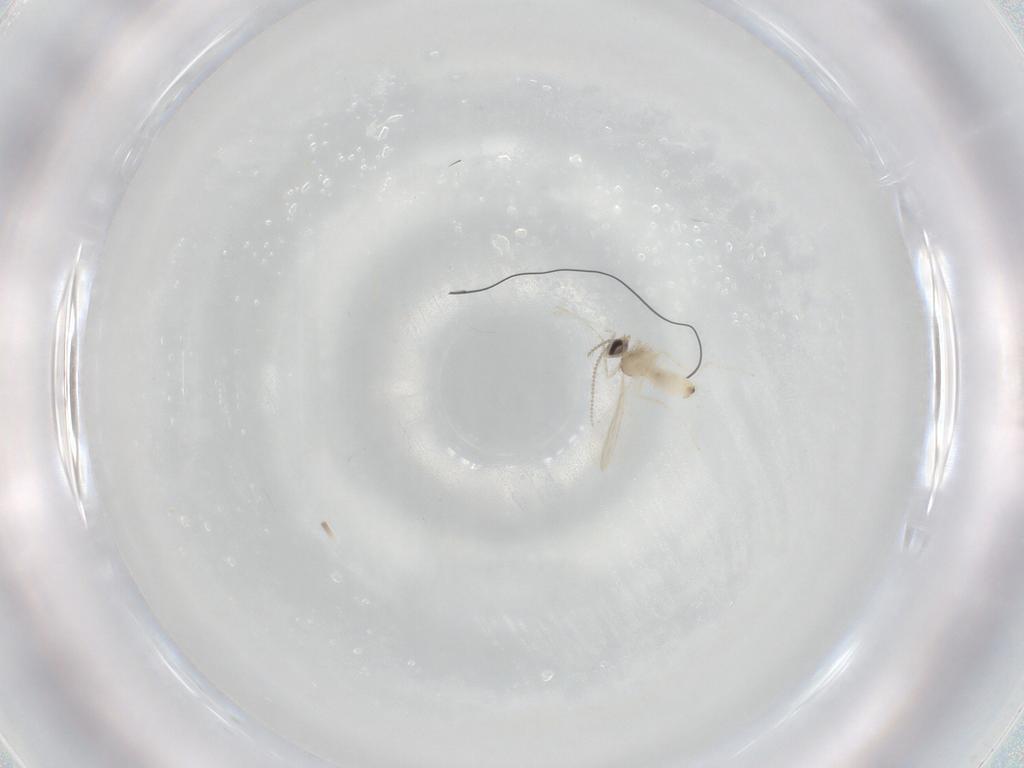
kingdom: Animalia
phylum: Arthropoda
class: Insecta
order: Diptera
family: Cecidomyiidae
